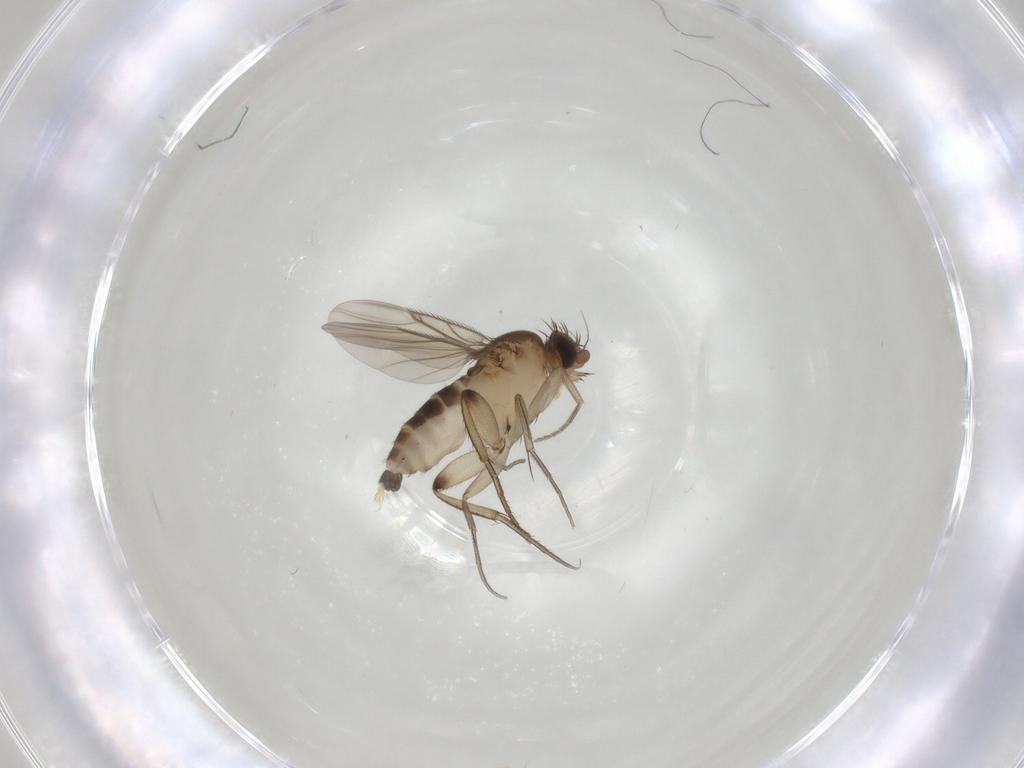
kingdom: Animalia
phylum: Arthropoda
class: Insecta
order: Diptera
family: Phoridae
